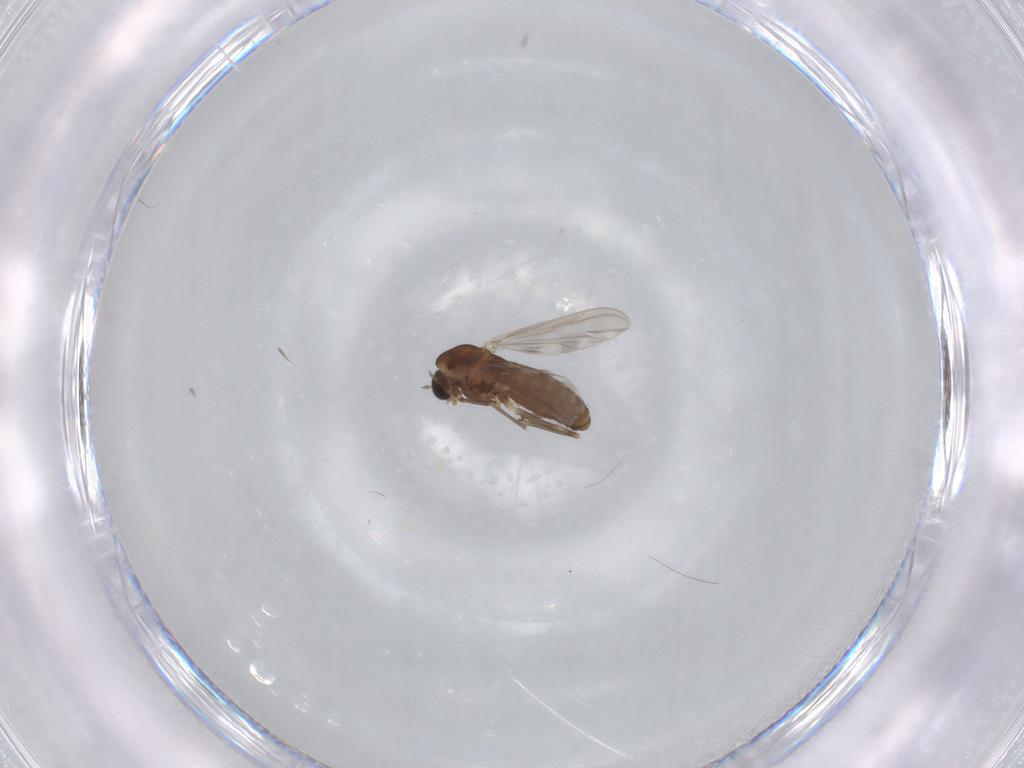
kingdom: Animalia
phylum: Arthropoda
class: Insecta
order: Diptera
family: Chironomidae
